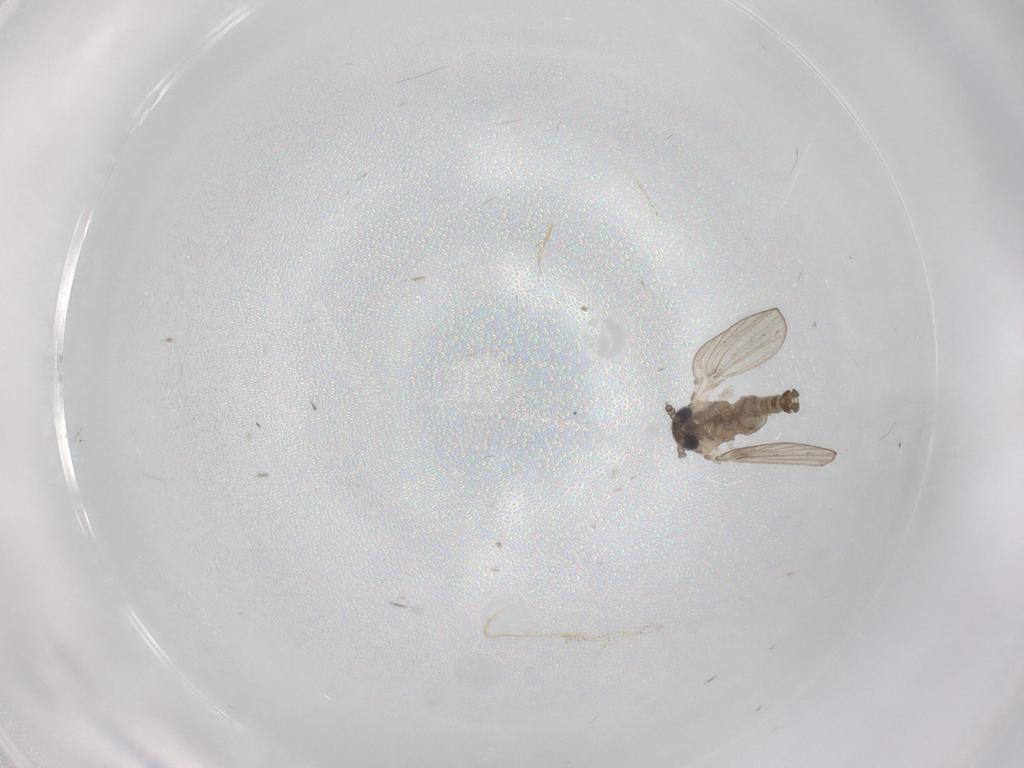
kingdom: Animalia
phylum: Arthropoda
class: Insecta
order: Diptera
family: Psychodidae
